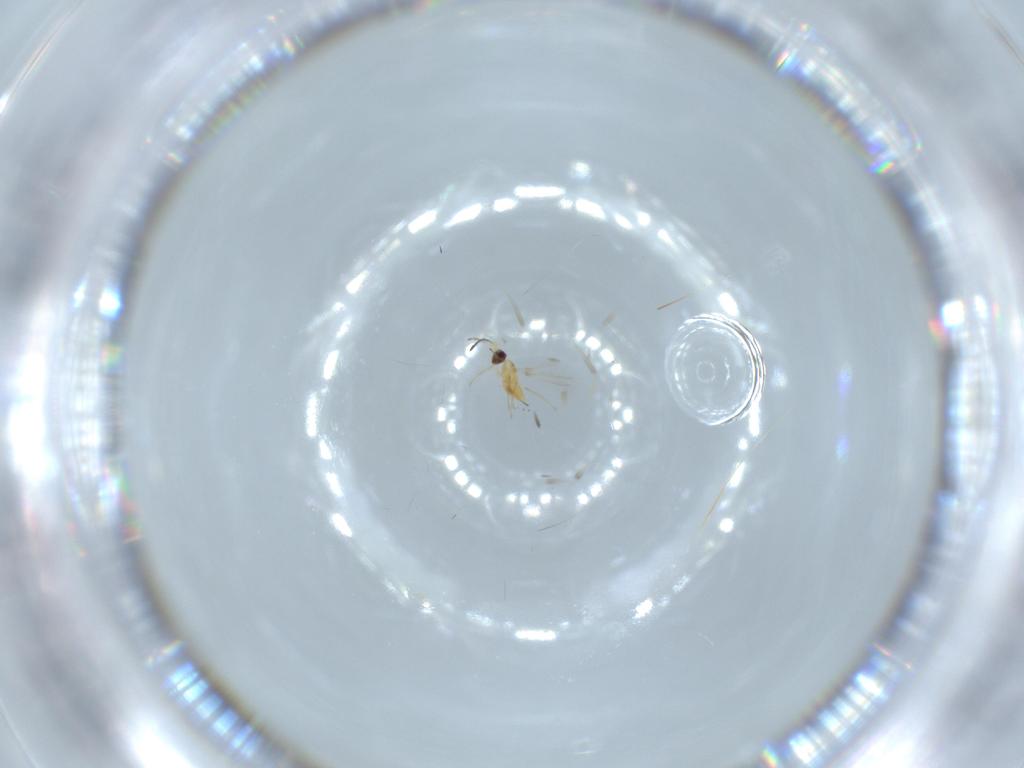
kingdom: Animalia
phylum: Arthropoda
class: Insecta
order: Hymenoptera
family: Mymaridae
